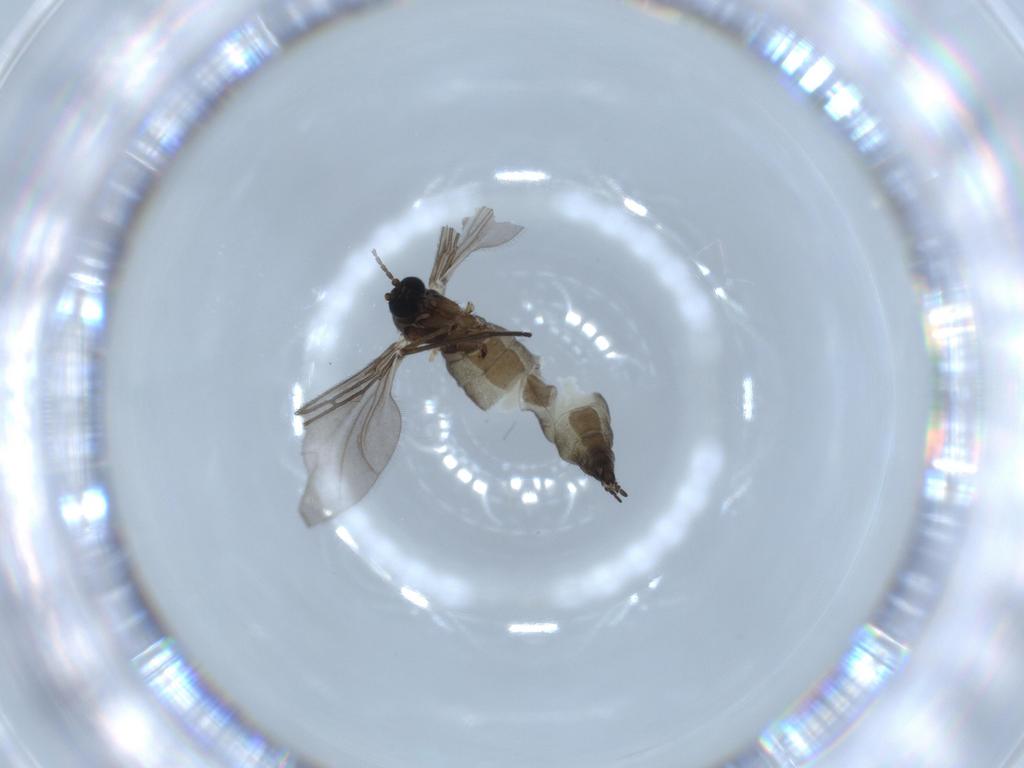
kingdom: Animalia
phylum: Arthropoda
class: Insecta
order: Diptera
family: Sciaridae
